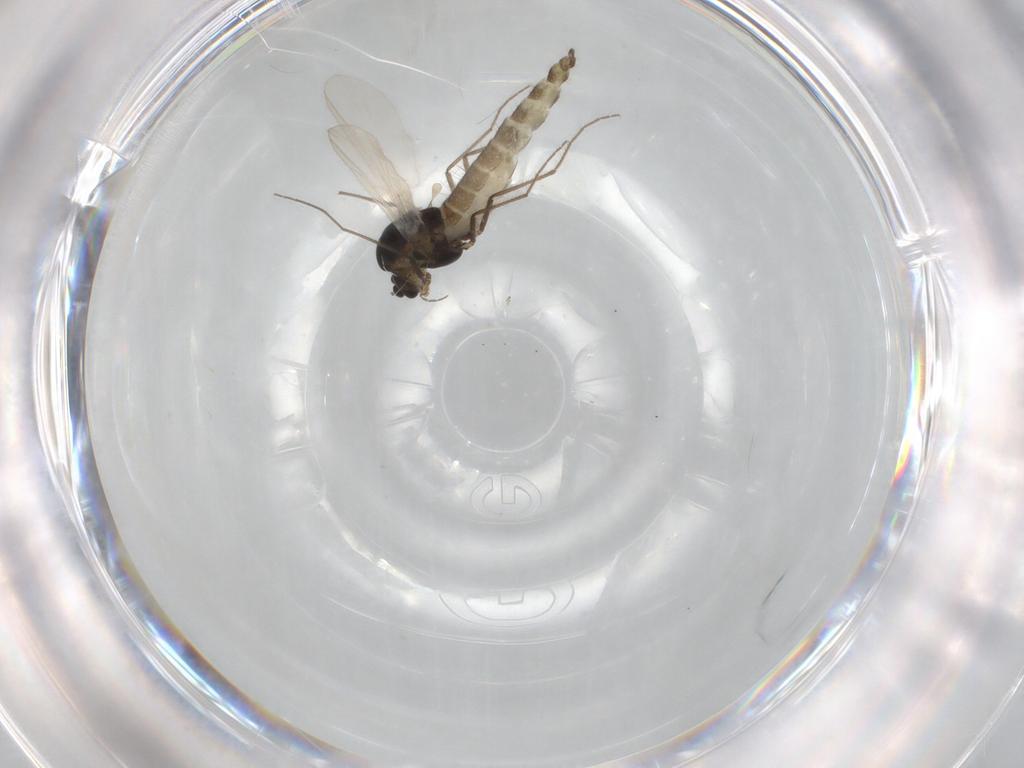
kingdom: Animalia
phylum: Arthropoda
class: Insecta
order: Diptera
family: Chironomidae
